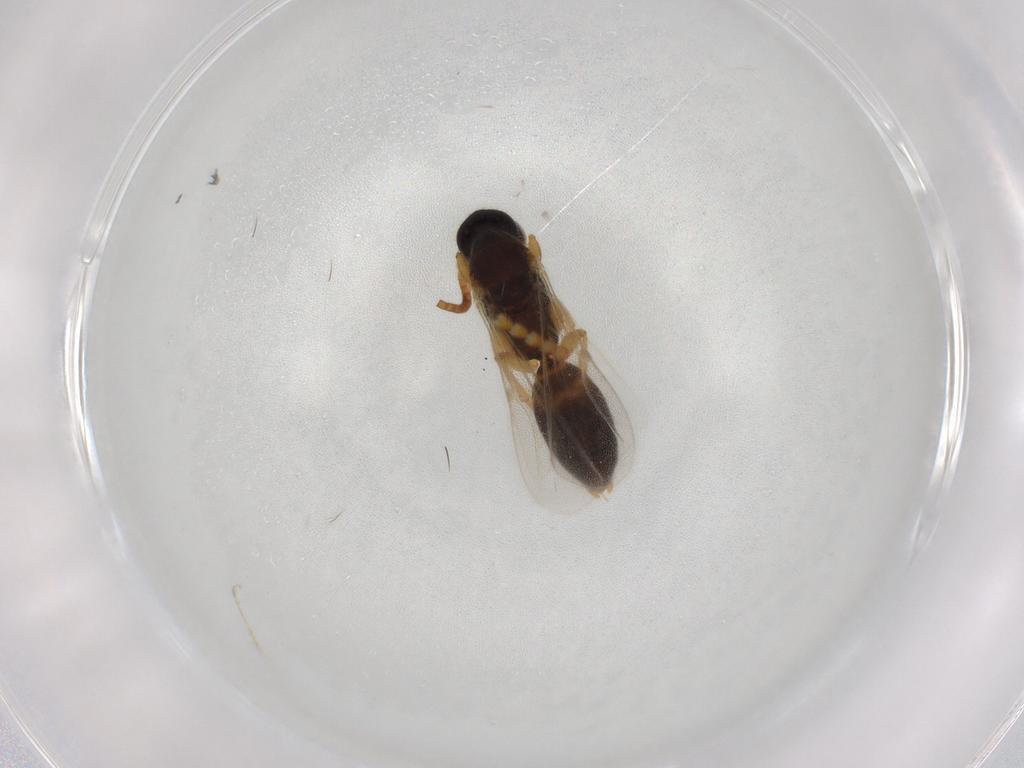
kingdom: Animalia
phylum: Arthropoda
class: Insecta
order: Hymenoptera
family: Bethylidae
